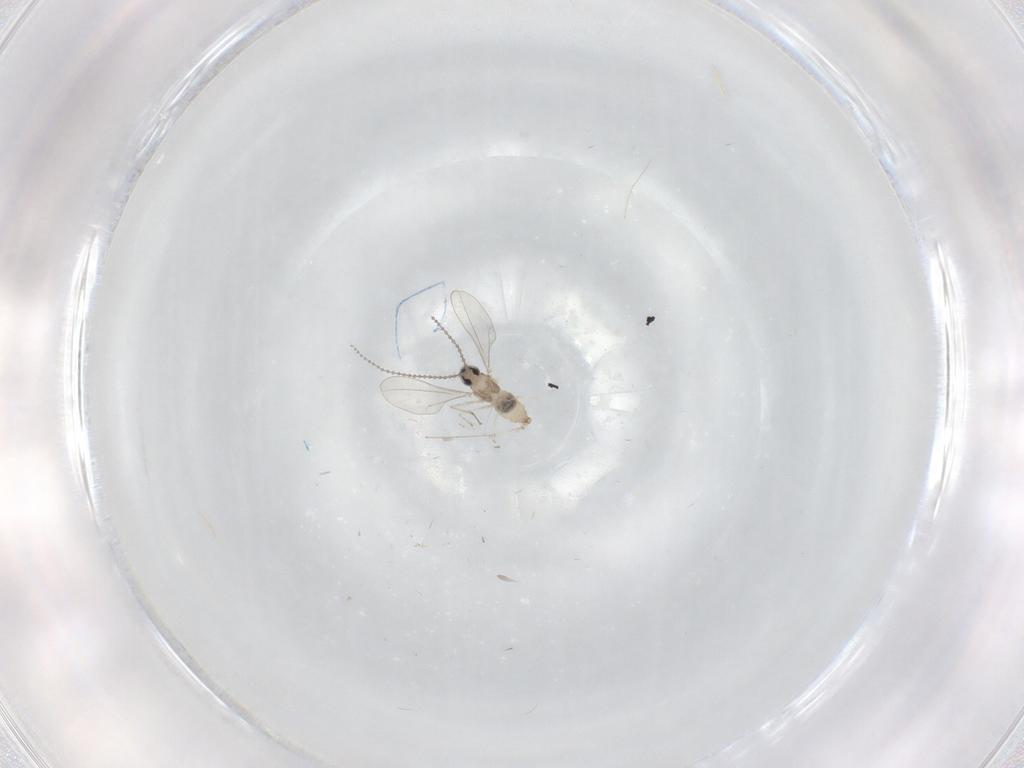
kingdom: Animalia
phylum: Arthropoda
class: Insecta
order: Diptera
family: Cecidomyiidae
